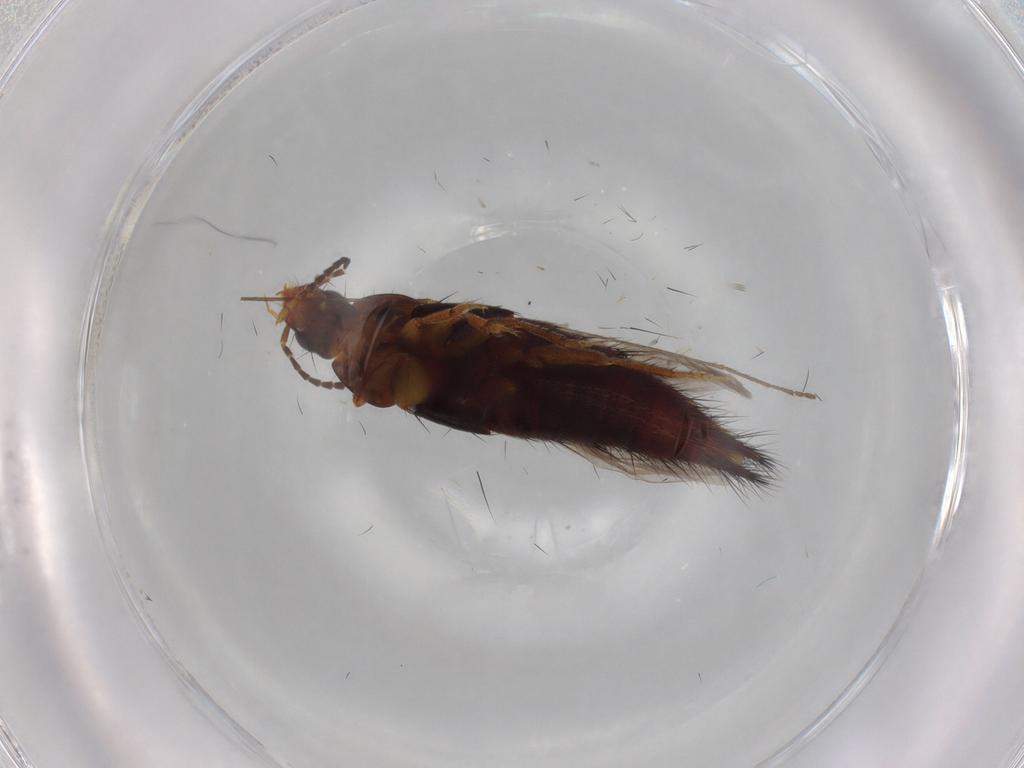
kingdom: Animalia
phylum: Arthropoda
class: Insecta
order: Coleoptera
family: Staphylinidae
